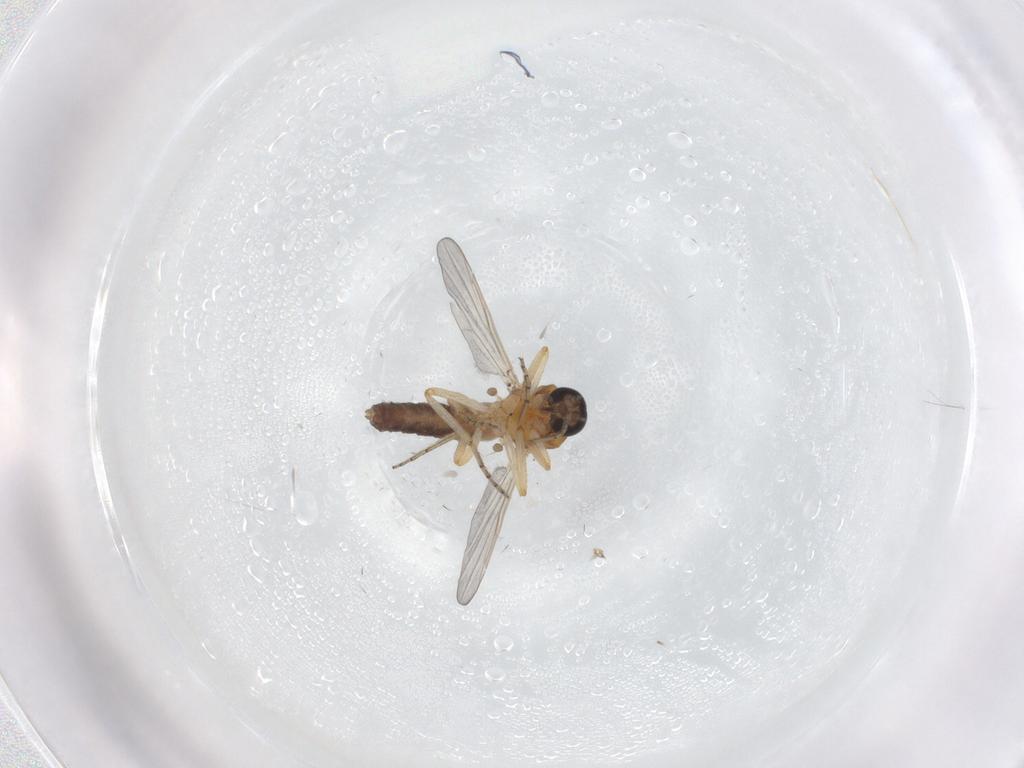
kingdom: Animalia
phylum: Arthropoda
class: Insecta
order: Diptera
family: Ceratopogonidae
